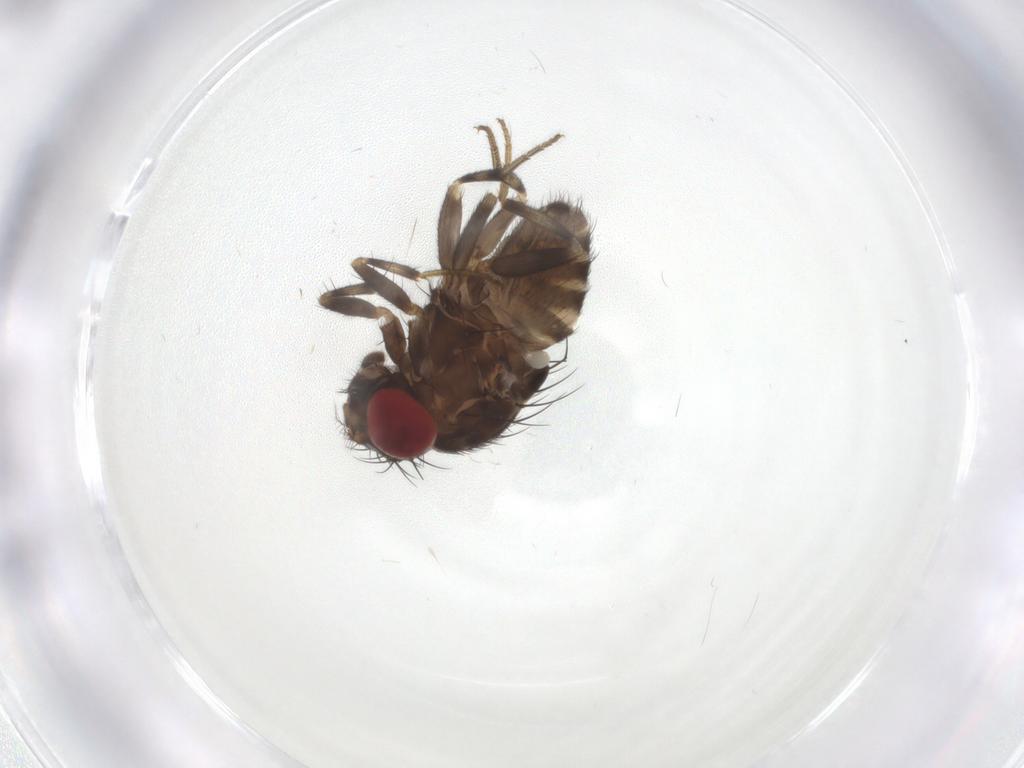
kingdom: Animalia
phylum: Arthropoda
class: Insecta
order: Diptera
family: Drosophilidae
